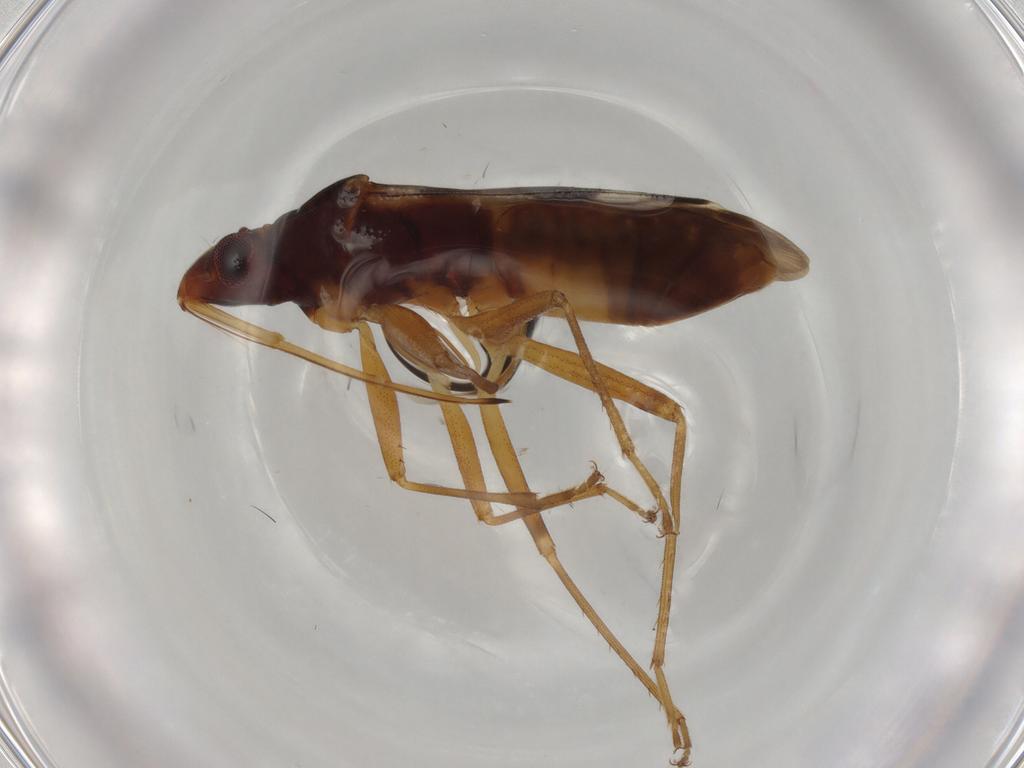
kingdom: Animalia
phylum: Arthropoda
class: Insecta
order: Hemiptera
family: Rhyparochromidae
